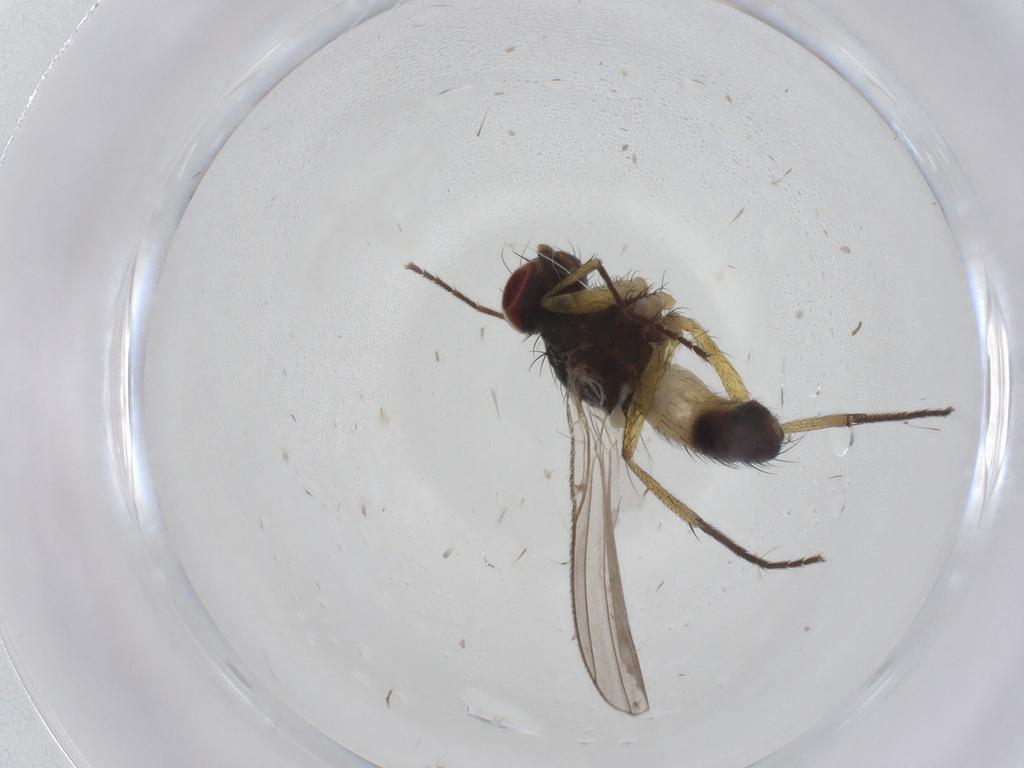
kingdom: Animalia
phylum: Arthropoda
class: Insecta
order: Diptera
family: Muscidae
